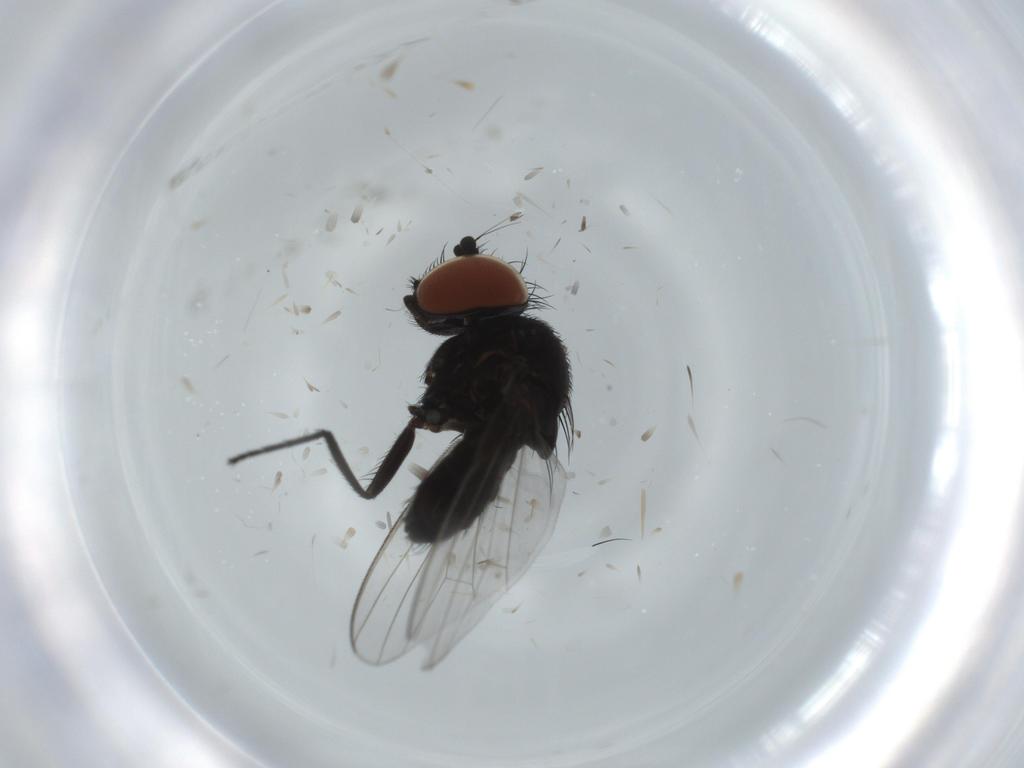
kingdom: Animalia
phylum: Arthropoda
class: Insecta
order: Diptera
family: Milichiidae
